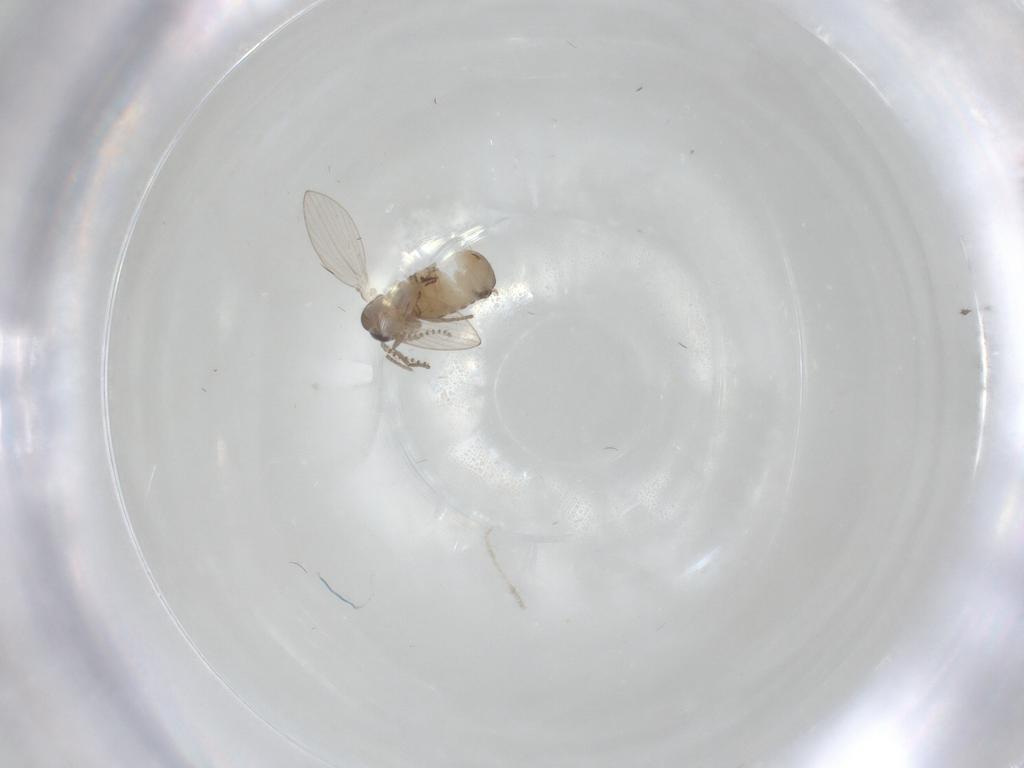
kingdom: Animalia
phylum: Arthropoda
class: Insecta
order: Diptera
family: Psychodidae
